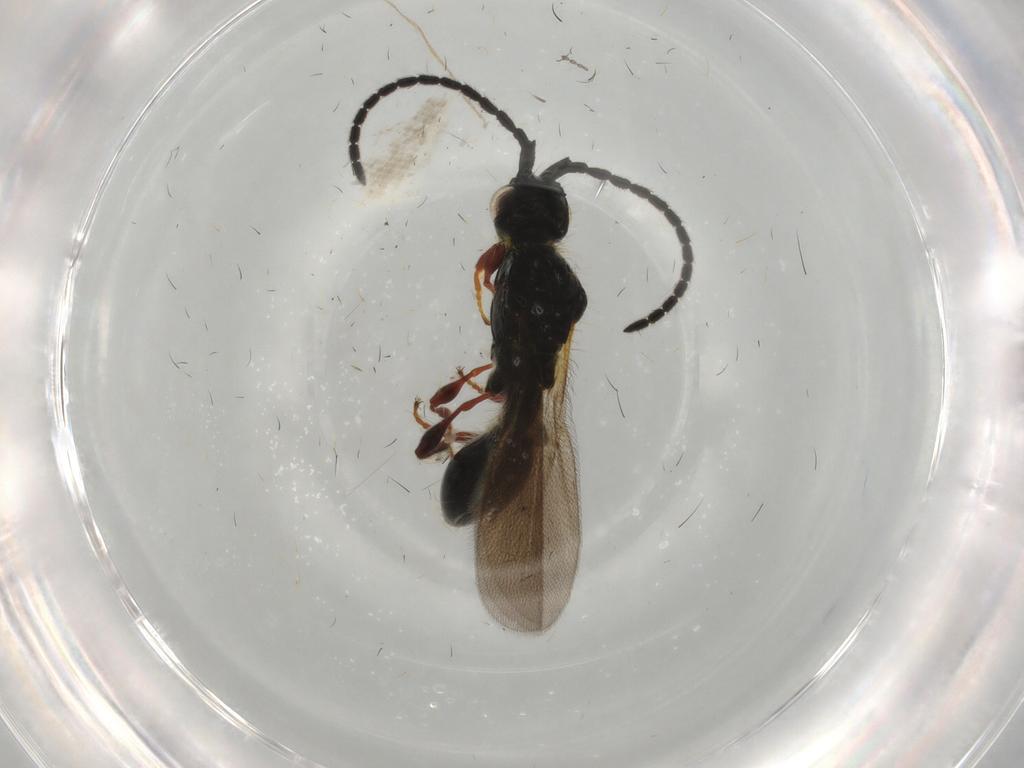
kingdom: Animalia
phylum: Arthropoda
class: Insecta
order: Hymenoptera
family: Diapriidae
